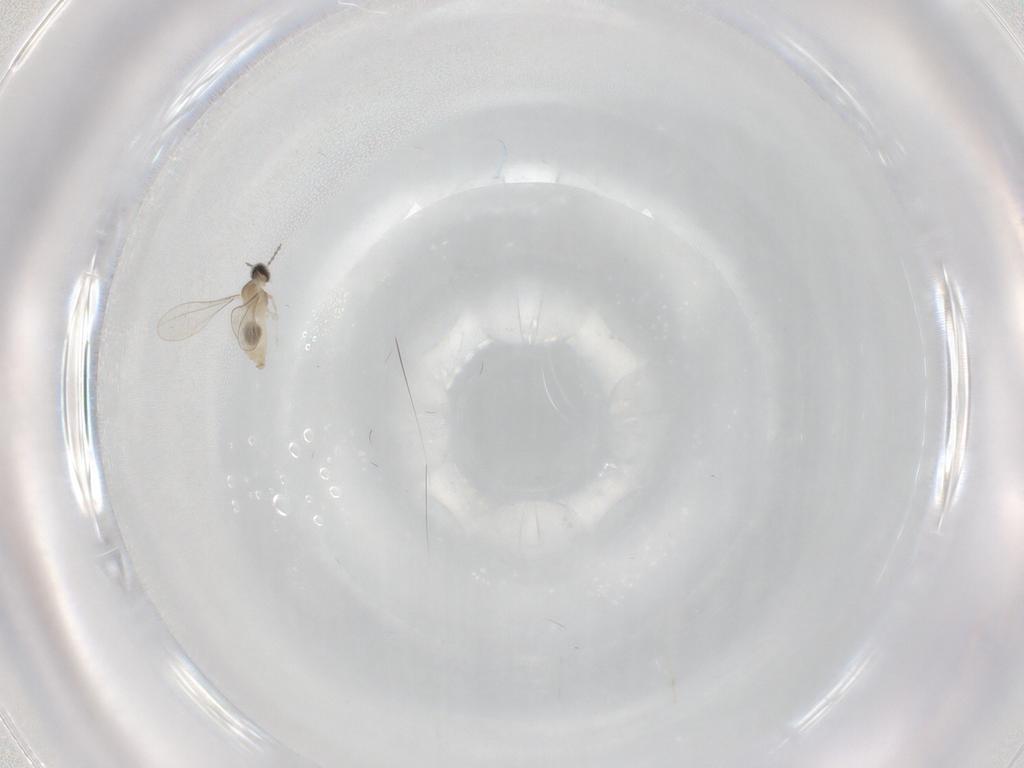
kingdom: Animalia
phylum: Arthropoda
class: Insecta
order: Diptera
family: Cecidomyiidae
